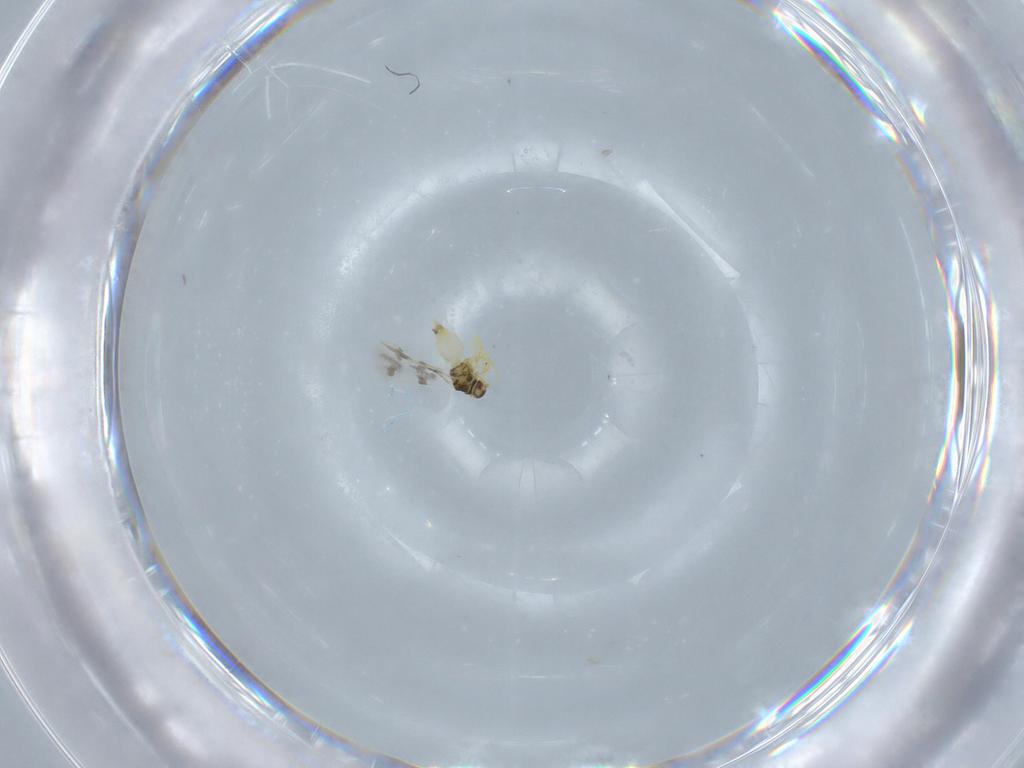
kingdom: Animalia
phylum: Arthropoda
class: Insecta
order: Hemiptera
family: Aleyrodidae
